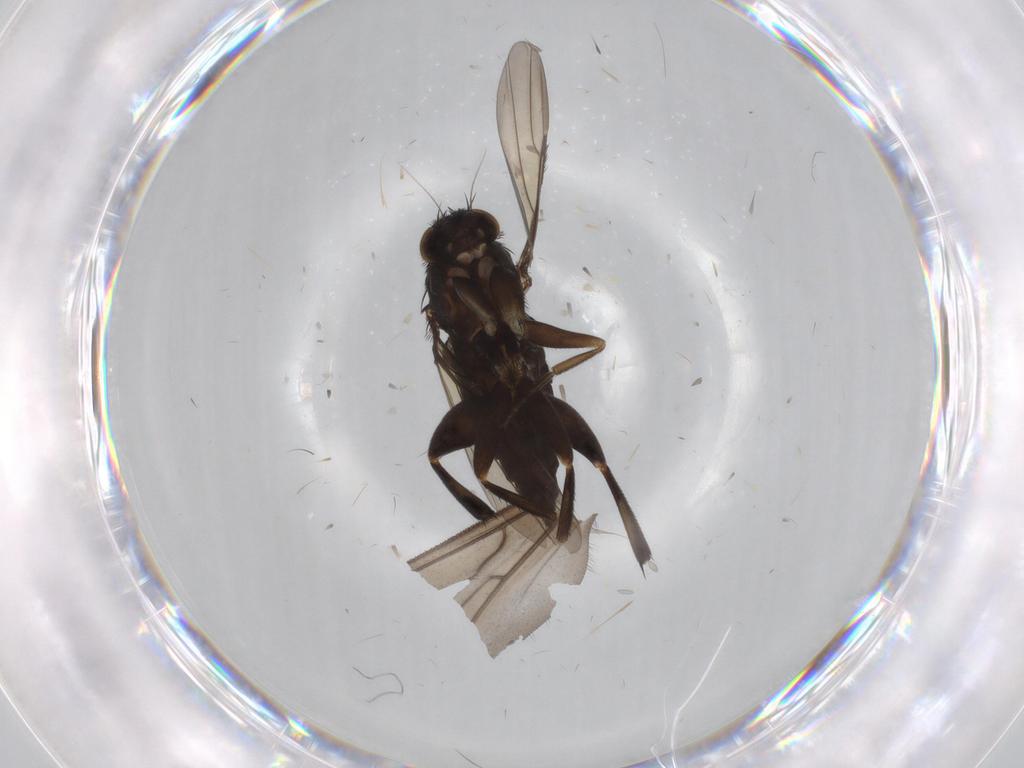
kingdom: Animalia
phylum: Arthropoda
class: Insecta
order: Diptera
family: Phoridae
